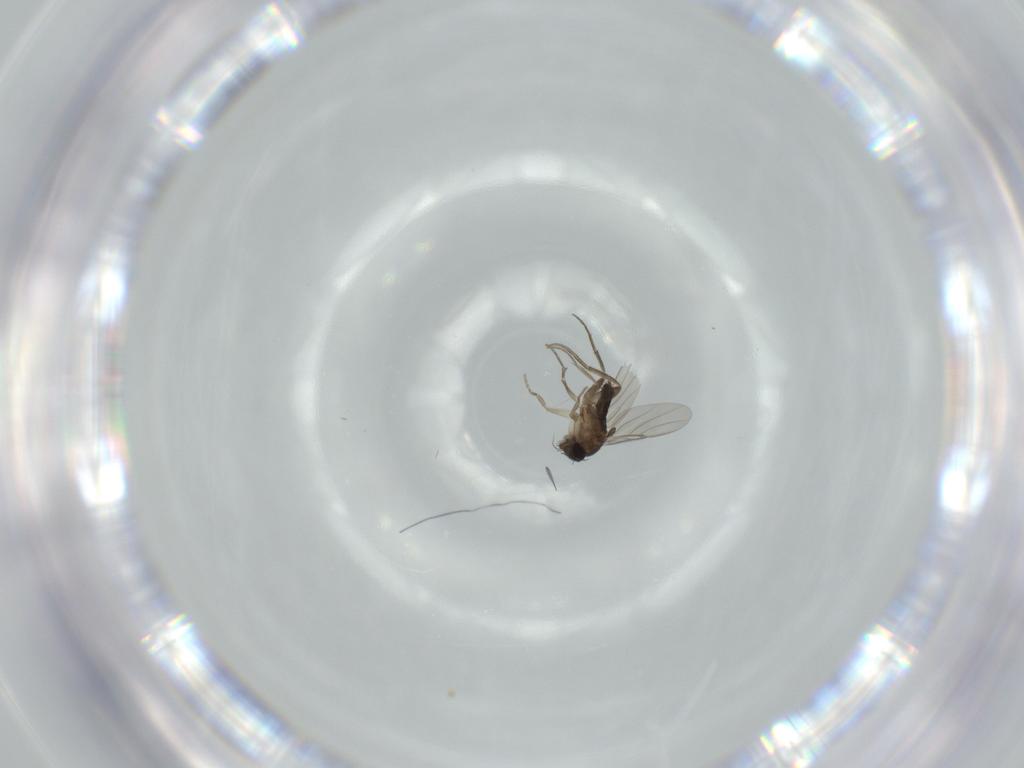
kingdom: Animalia
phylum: Arthropoda
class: Insecta
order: Diptera
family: Phoridae
